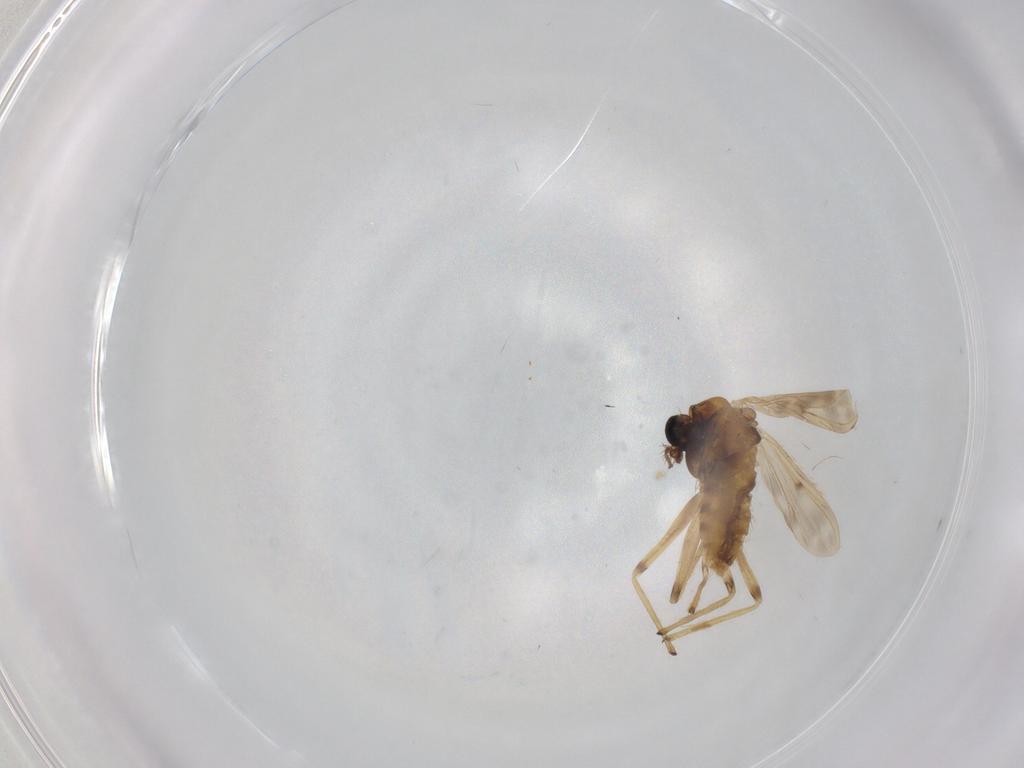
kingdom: Animalia
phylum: Arthropoda
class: Insecta
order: Diptera
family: Chironomidae
